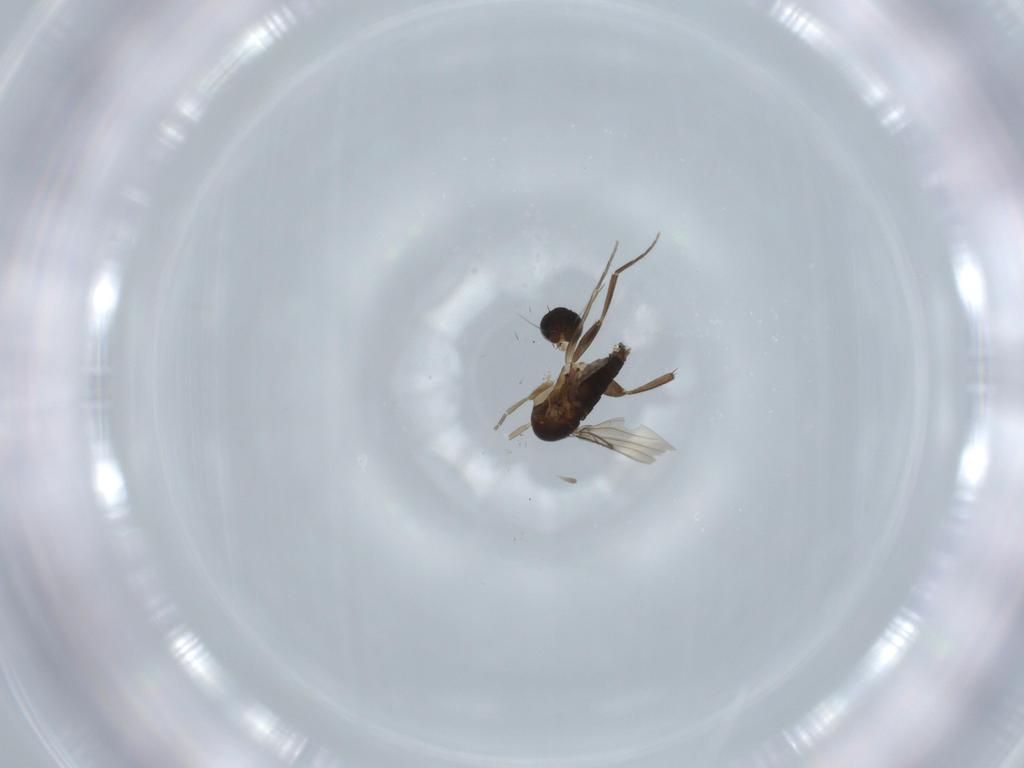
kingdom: Animalia
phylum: Arthropoda
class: Insecta
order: Diptera
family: Phoridae
